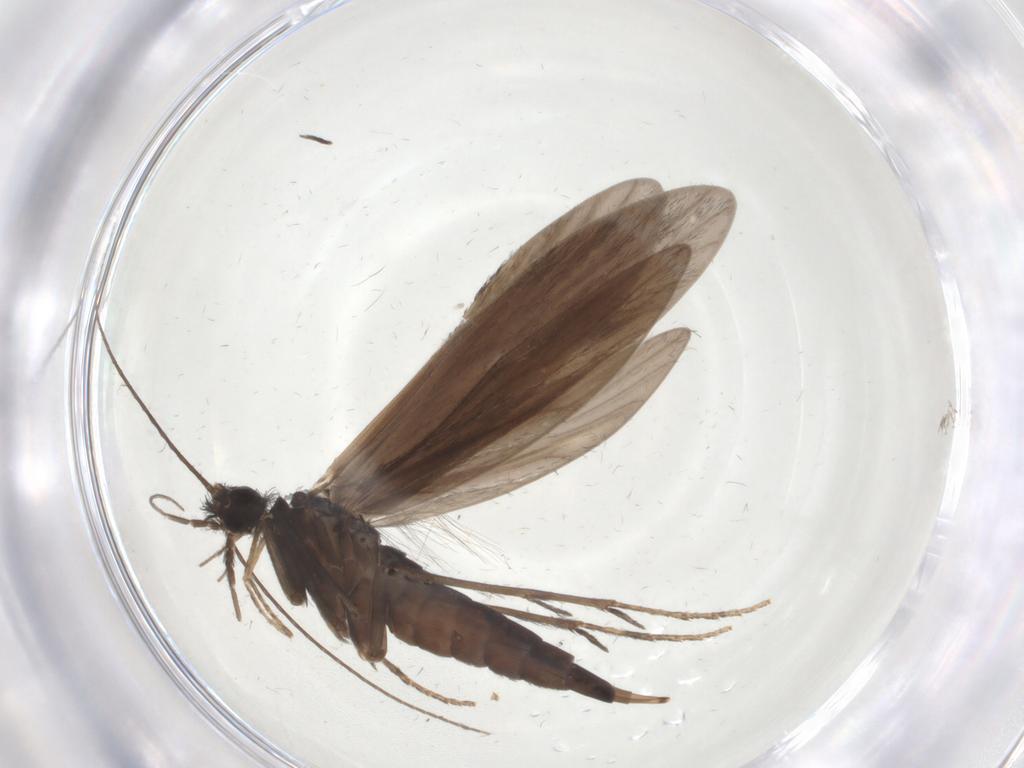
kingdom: Animalia
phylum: Arthropoda
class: Insecta
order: Trichoptera
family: Xiphocentronidae
